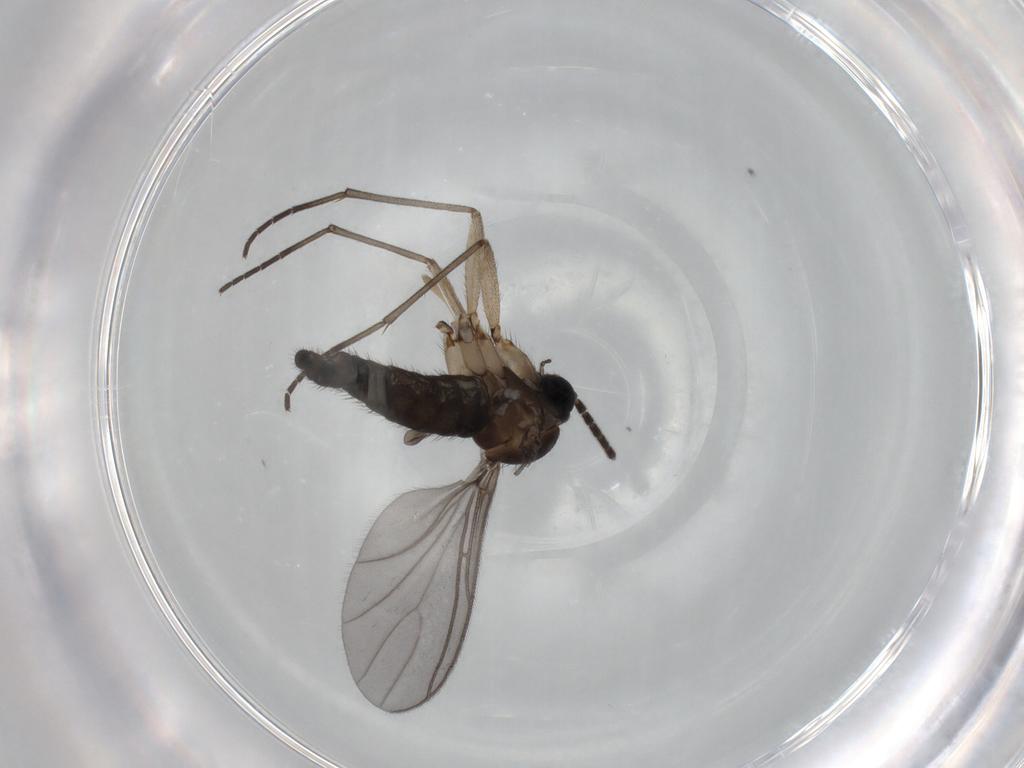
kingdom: Animalia
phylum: Arthropoda
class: Insecta
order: Diptera
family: Sciaridae
